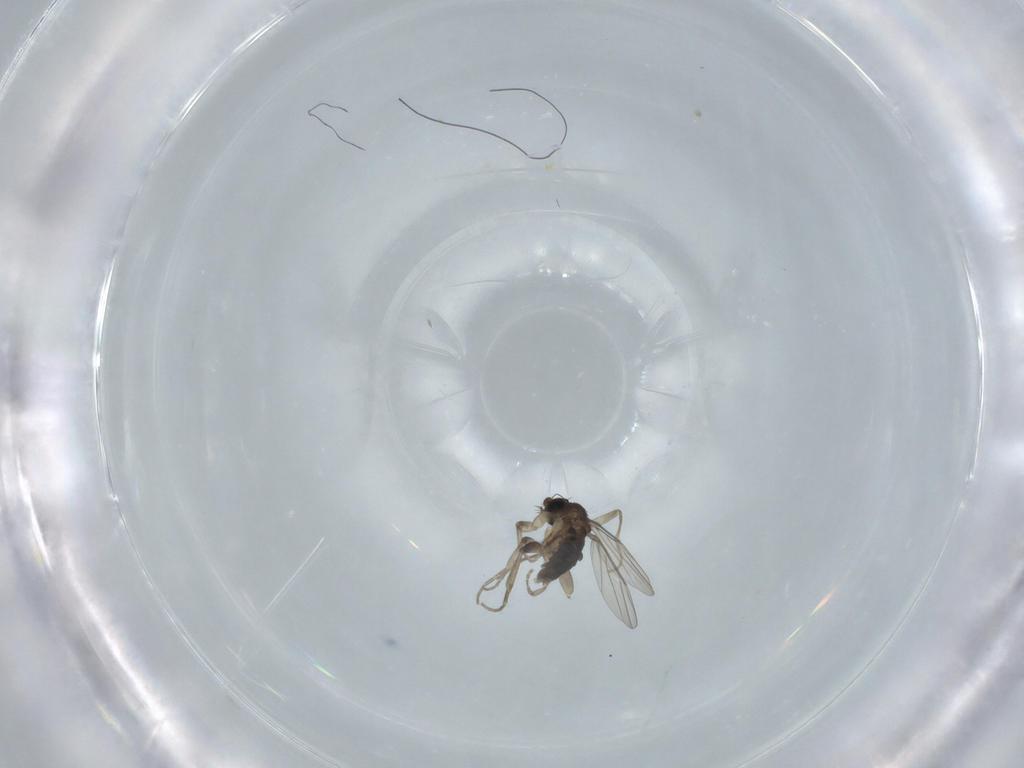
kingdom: Animalia
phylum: Arthropoda
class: Insecta
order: Diptera
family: Phoridae
